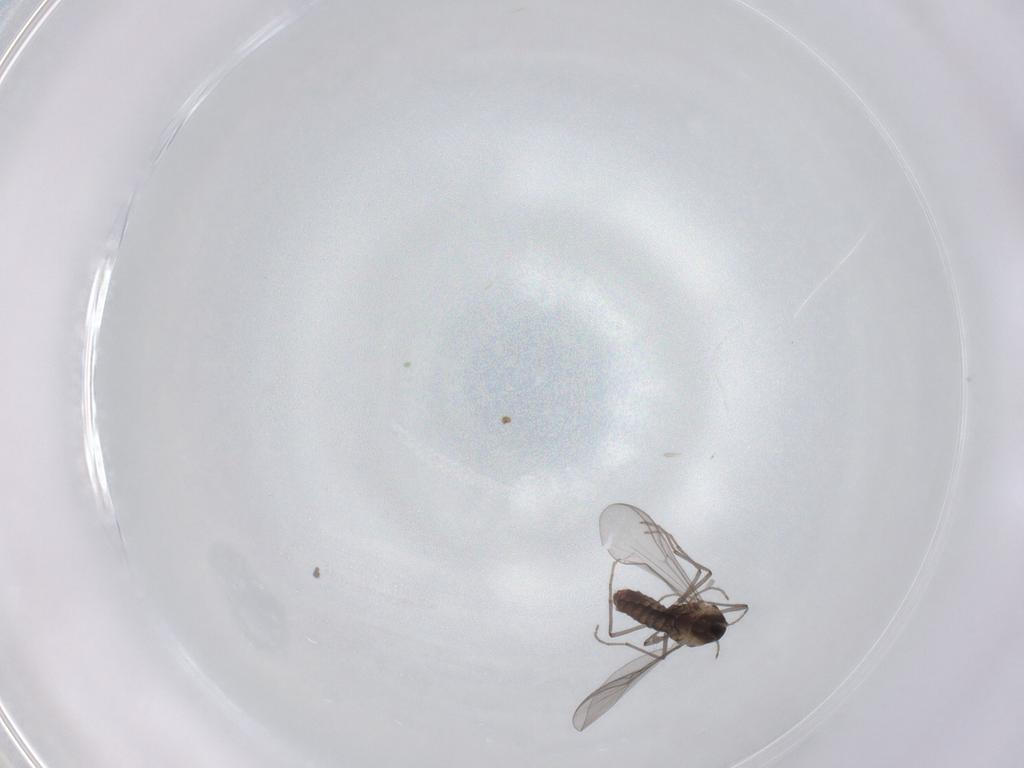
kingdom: Animalia
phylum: Arthropoda
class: Insecta
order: Diptera
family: Chironomidae
